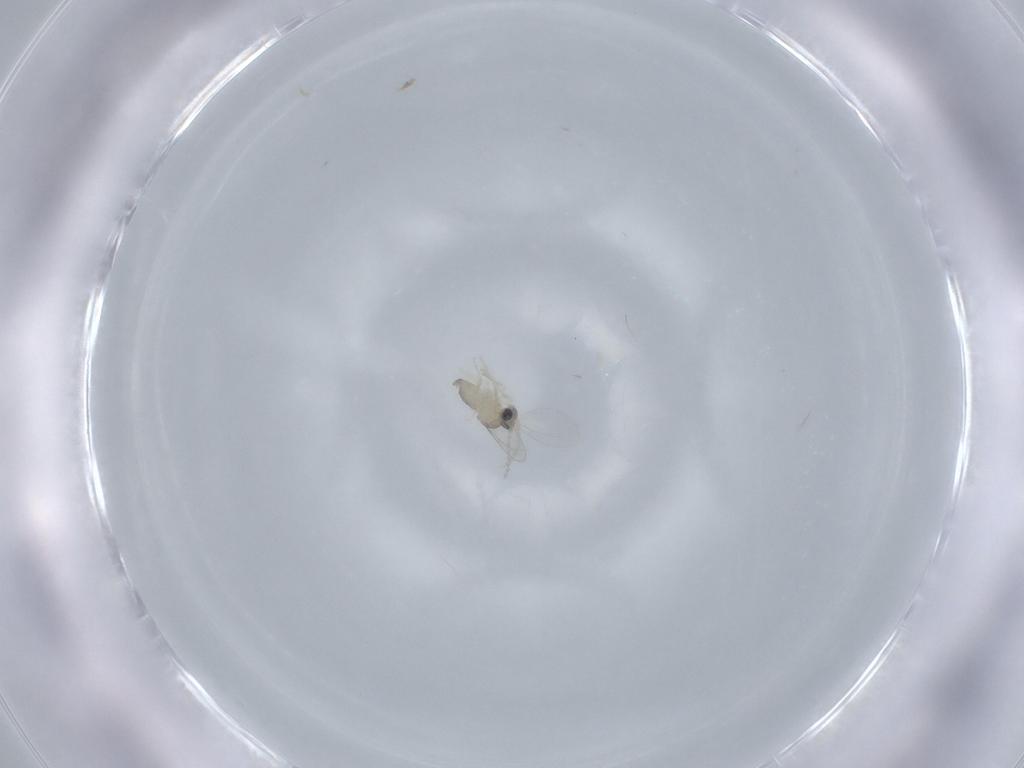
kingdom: Animalia
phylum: Arthropoda
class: Insecta
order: Diptera
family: Cecidomyiidae
